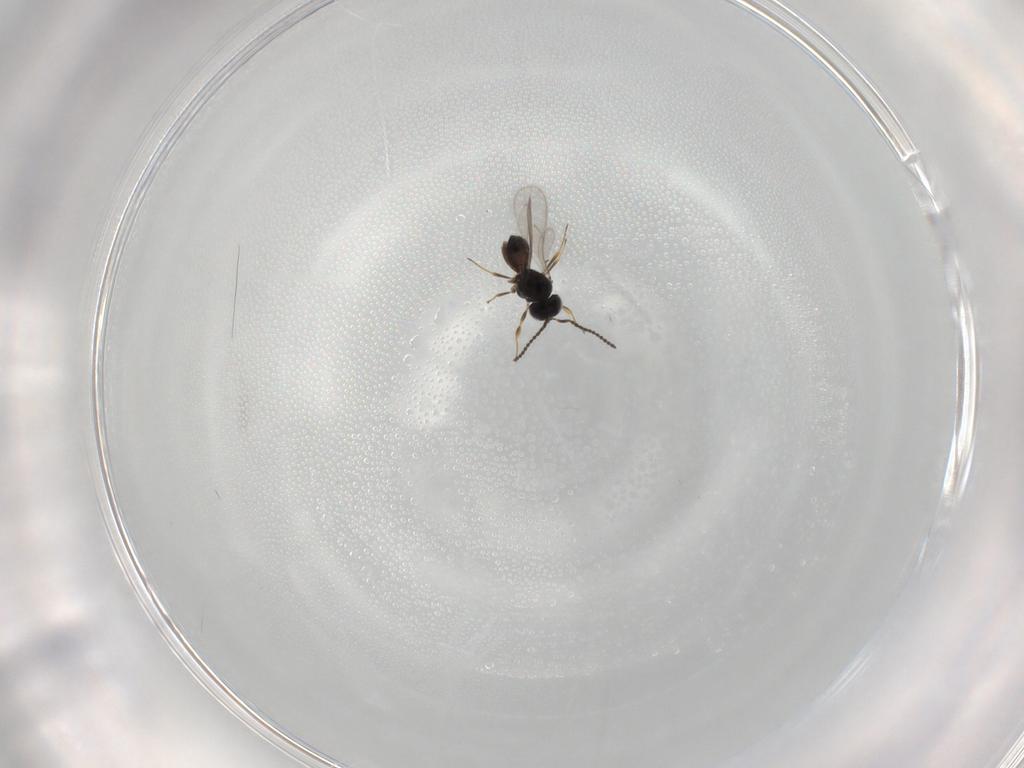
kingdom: Animalia
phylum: Arthropoda
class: Insecta
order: Hymenoptera
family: Scelionidae
